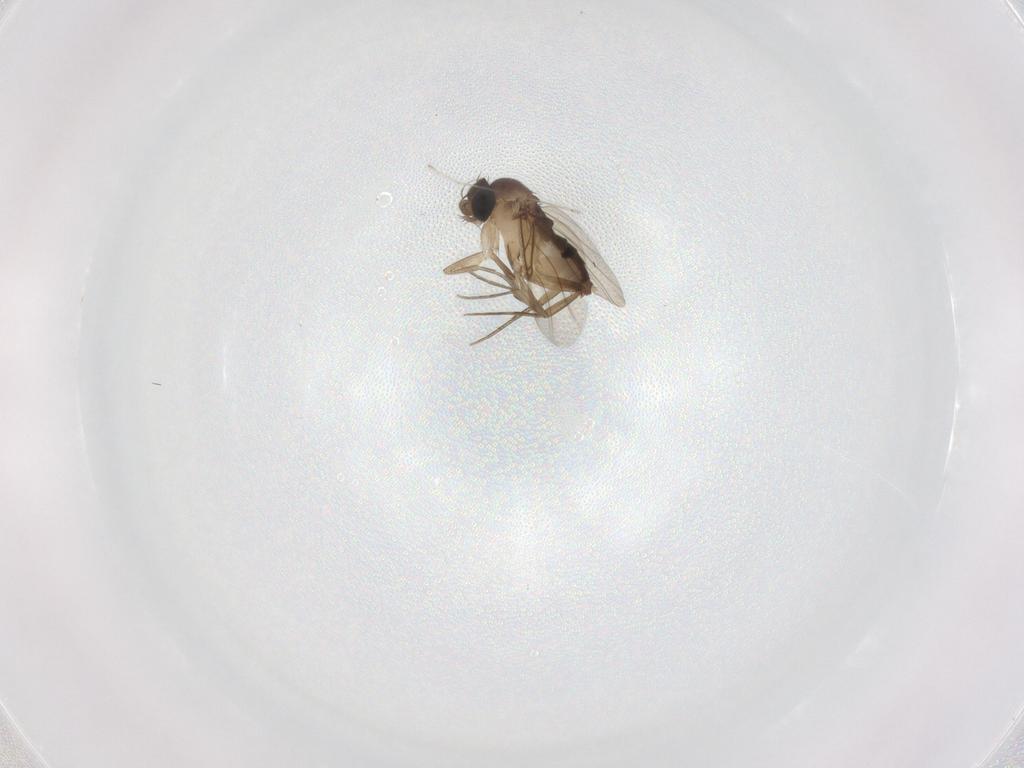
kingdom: Animalia
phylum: Arthropoda
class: Insecta
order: Diptera
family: Phoridae
